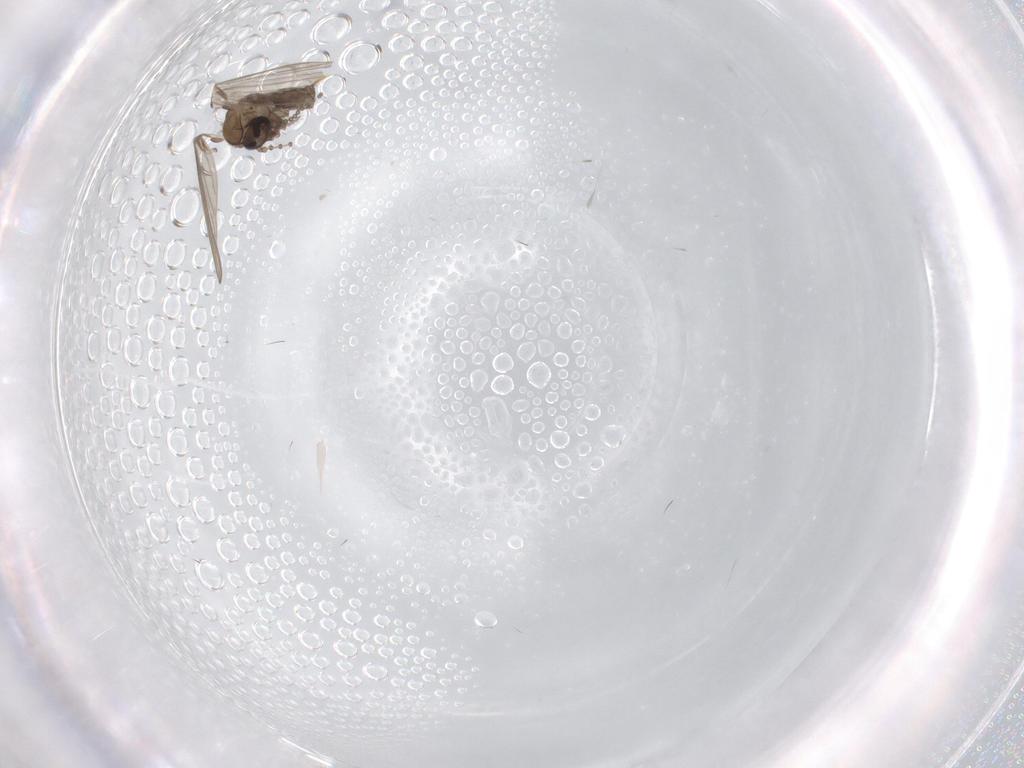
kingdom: Animalia
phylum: Arthropoda
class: Insecta
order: Diptera
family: Psychodidae
